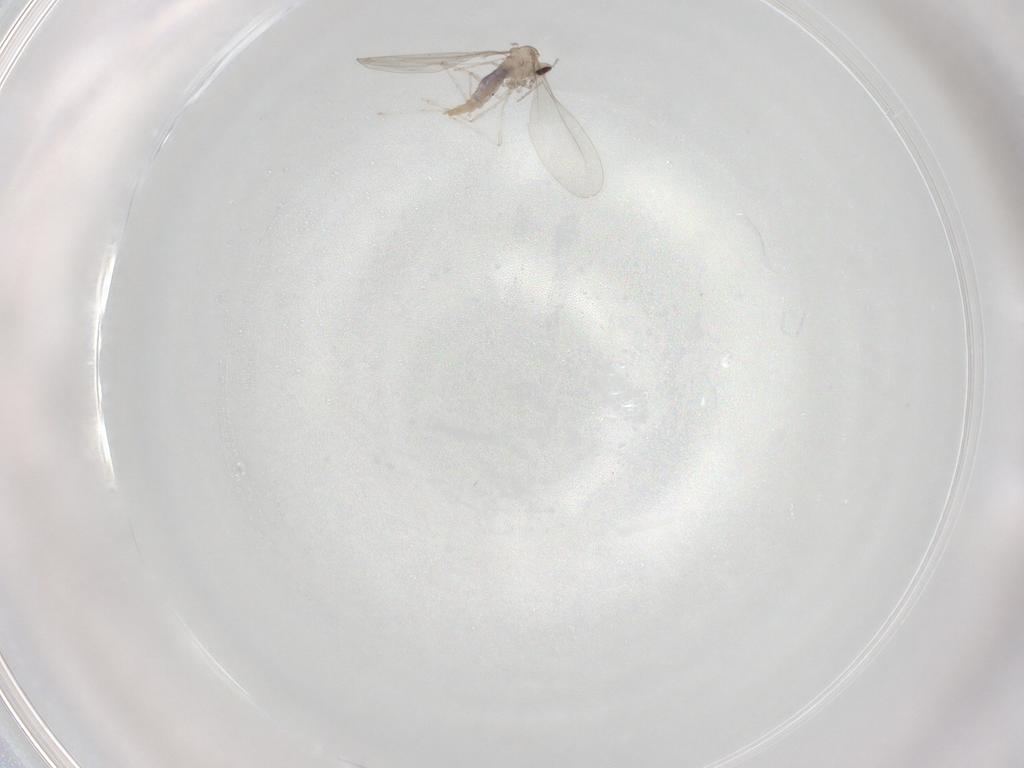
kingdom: Animalia
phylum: Arthropoda
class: Insecta
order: Diptera
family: Cecidomyiidae
